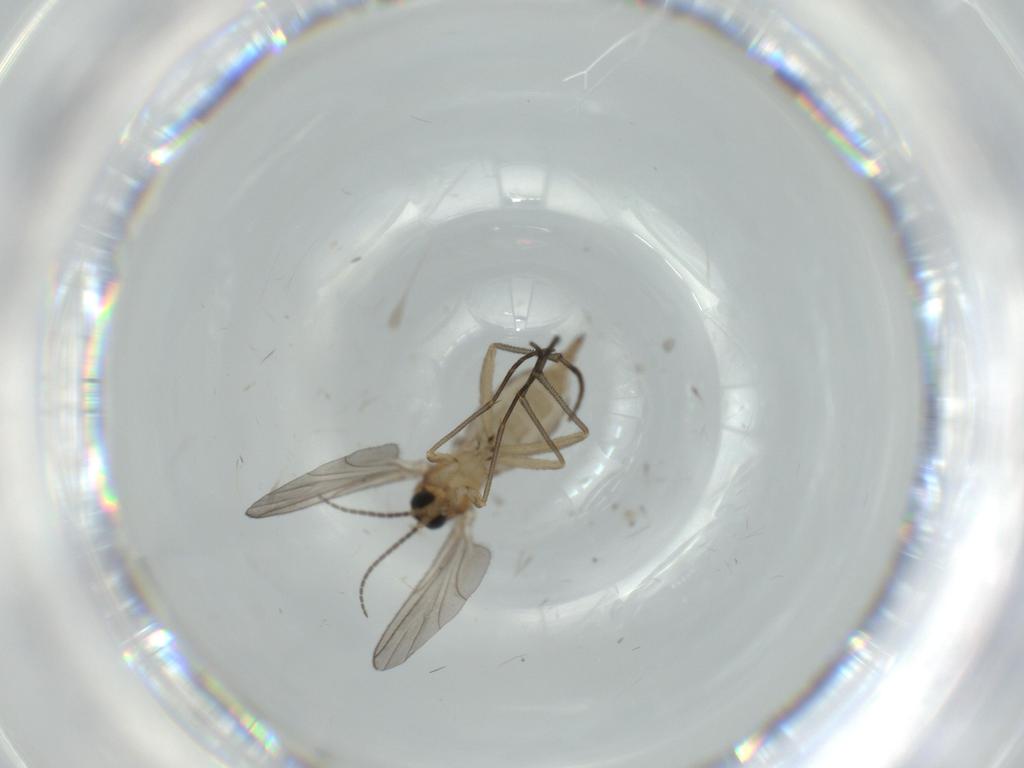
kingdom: Animalia
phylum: Arthropoda
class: Insecta
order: Diptera
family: Sciaridae
